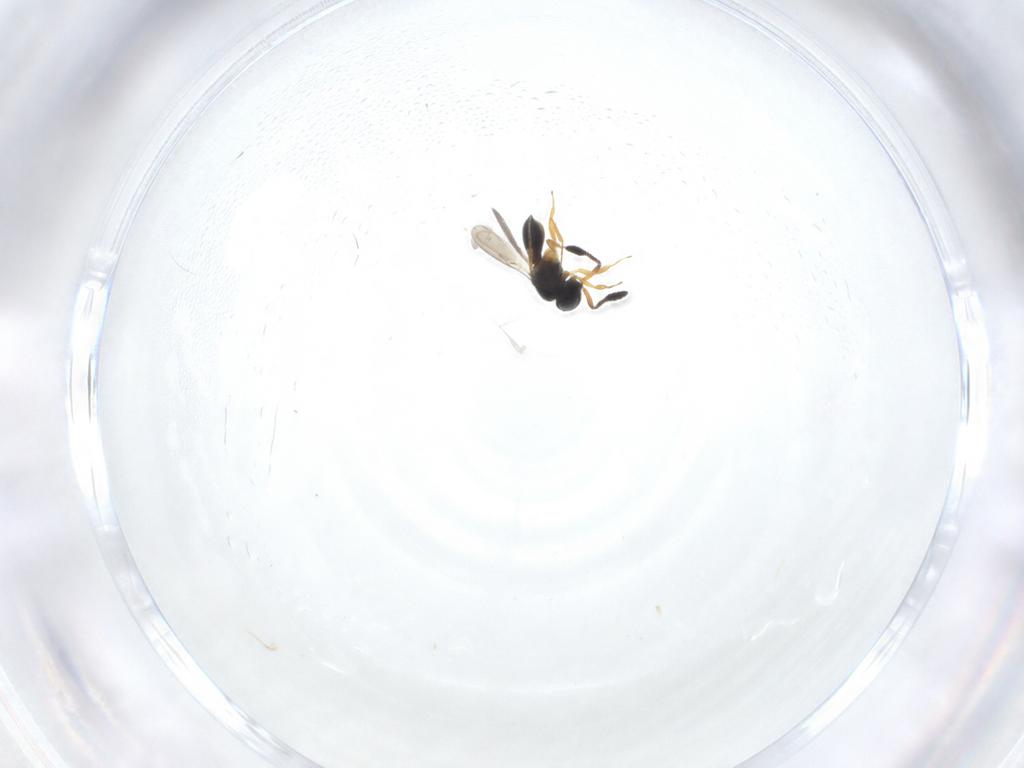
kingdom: Animalia
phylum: Arthropoda
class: Insecta
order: Hymenoptera
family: Scelionidae
